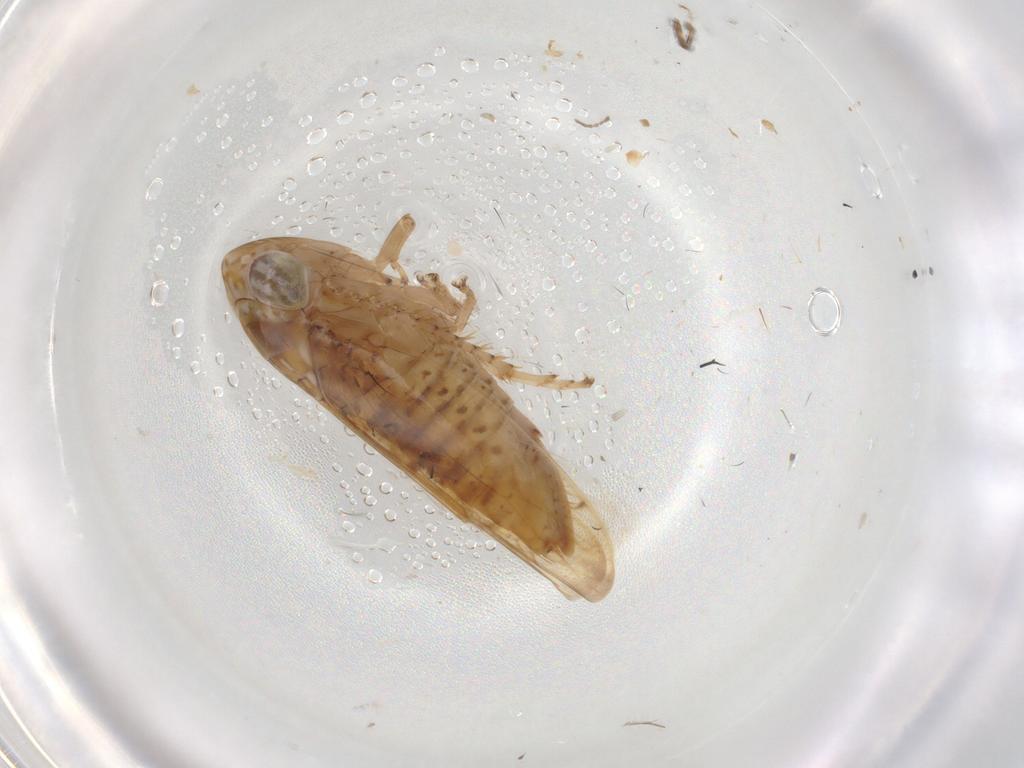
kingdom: Animalia
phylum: Arthropoda
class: Insecta
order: Hemiptera
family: Cicadellidae
